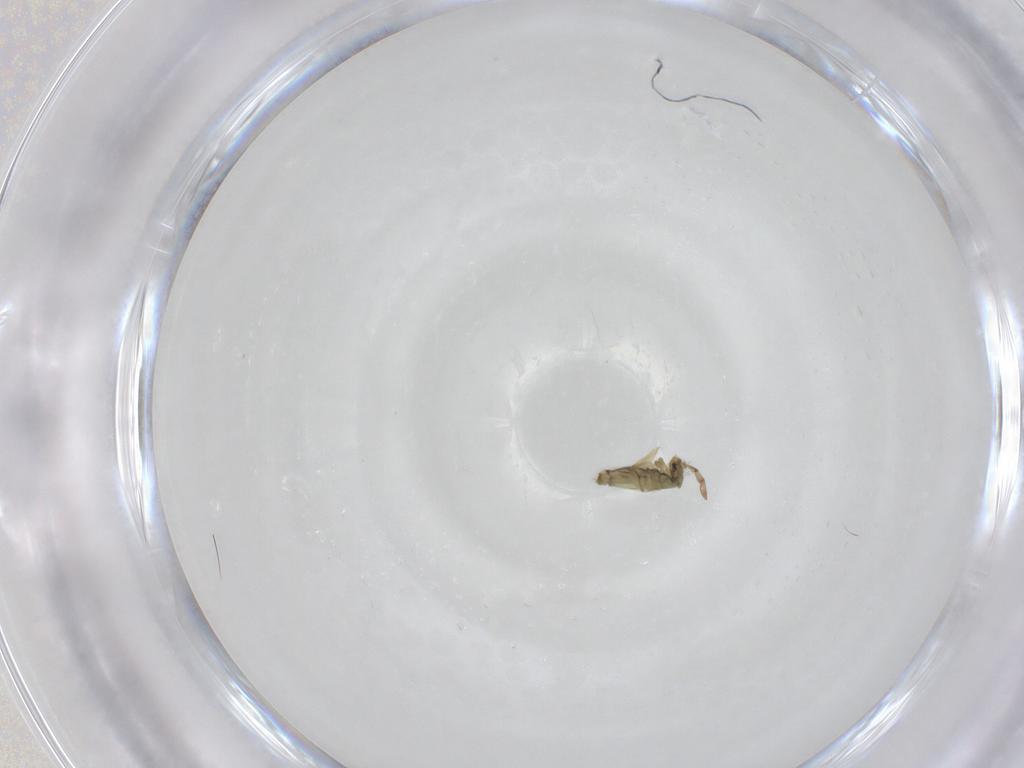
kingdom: Animalia
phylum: Arthropoda
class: Collembola
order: Entomobryomorpha
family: Entomobryidae
